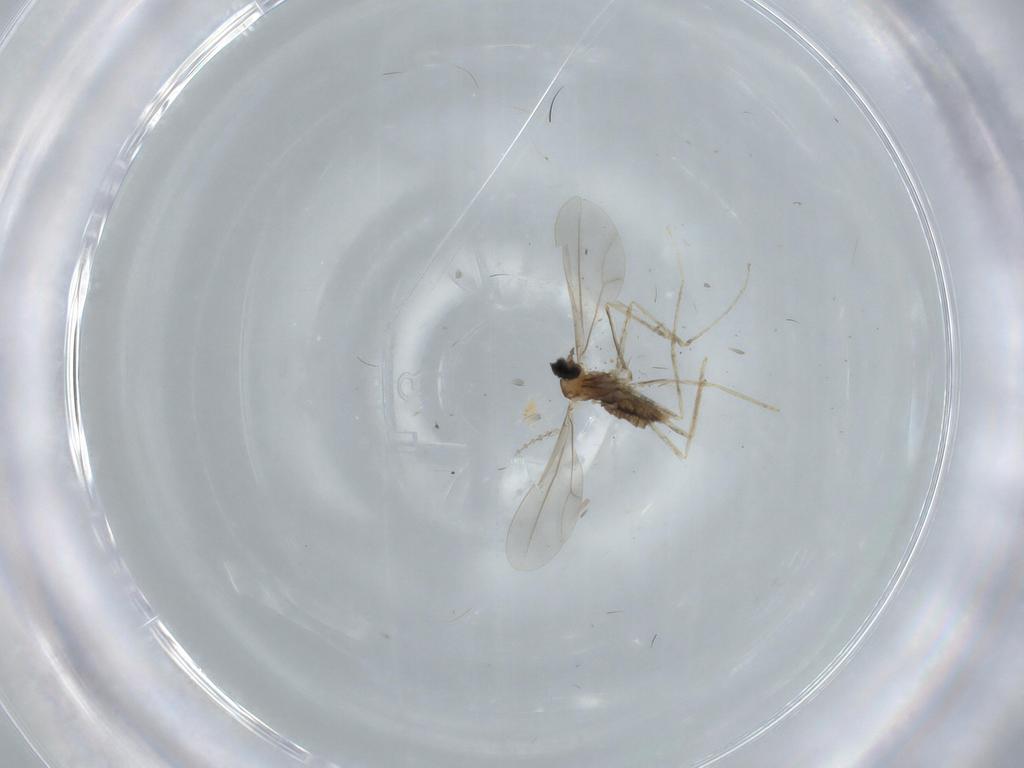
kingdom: Animalia
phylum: Arthropoda
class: Insecta
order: Diptera
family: Cecidomyiidae
